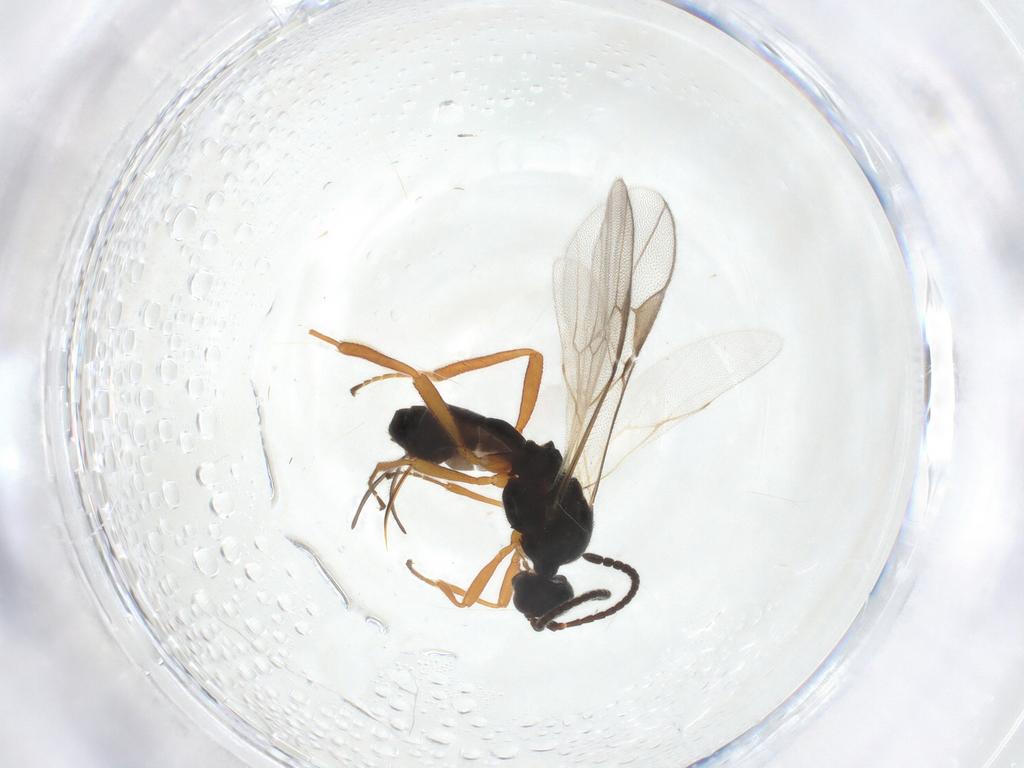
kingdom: Animalia
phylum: Arthropoda
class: Insecta
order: Hymenoptera
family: Braconidae
